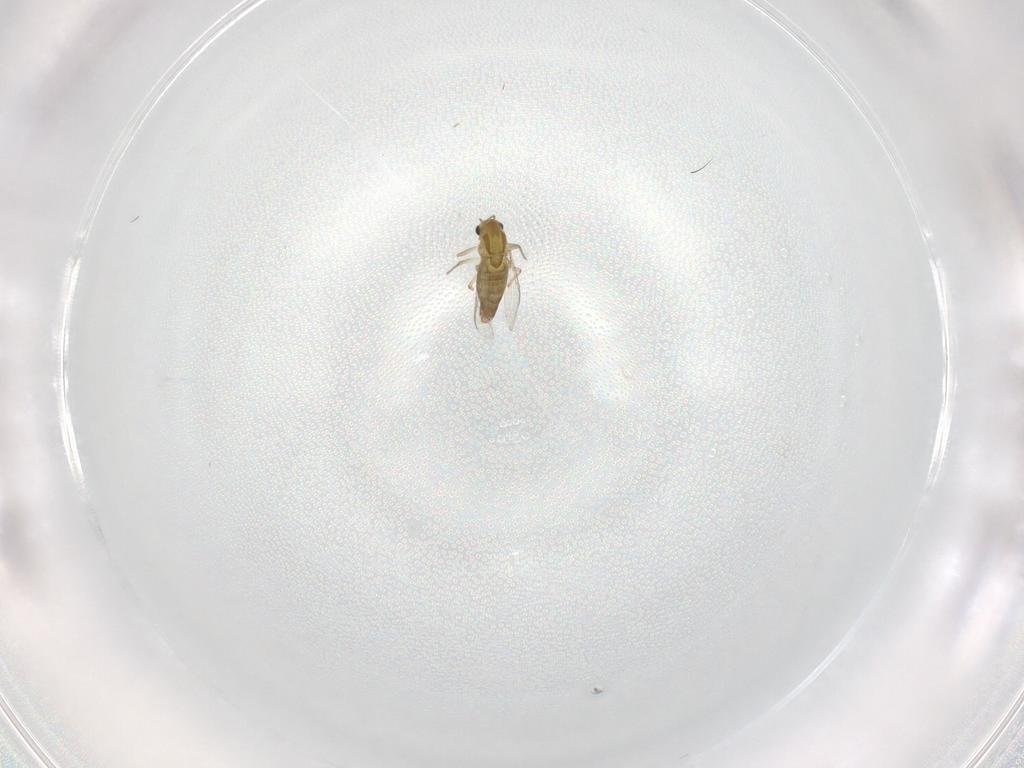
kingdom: Animalia
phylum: Arthropoda
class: Insecta
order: Diptera
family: Chironomidae
